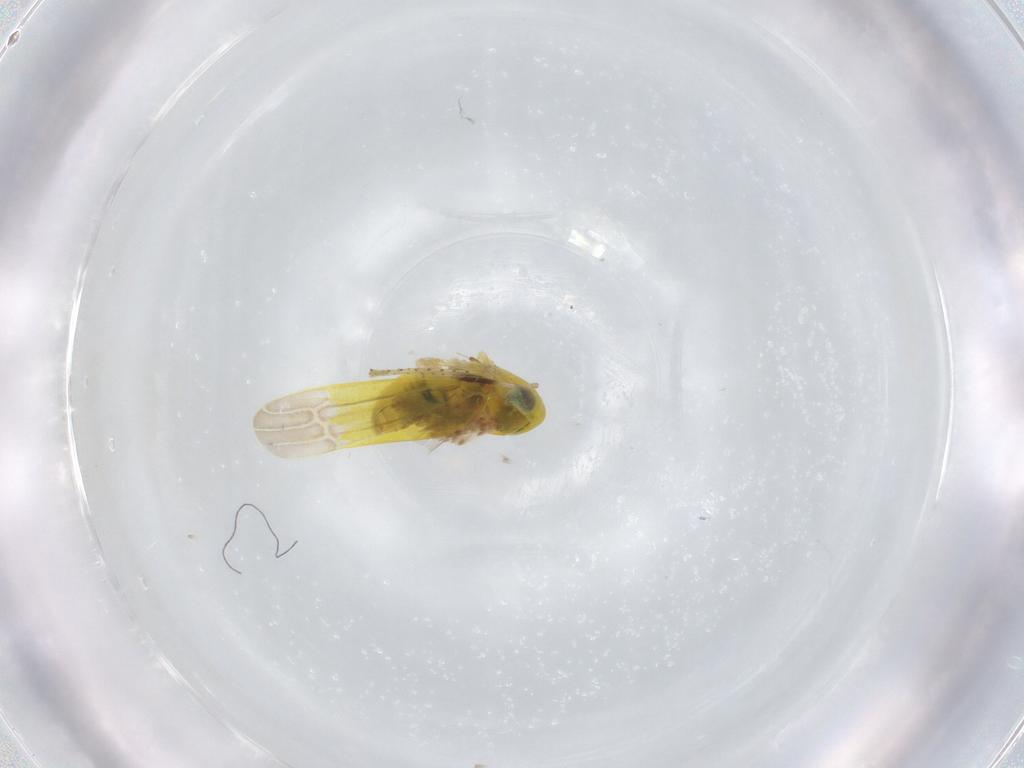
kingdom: Animalia
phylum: Arthropoda
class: Insecta
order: Hemiptera
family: Cicadellidae
